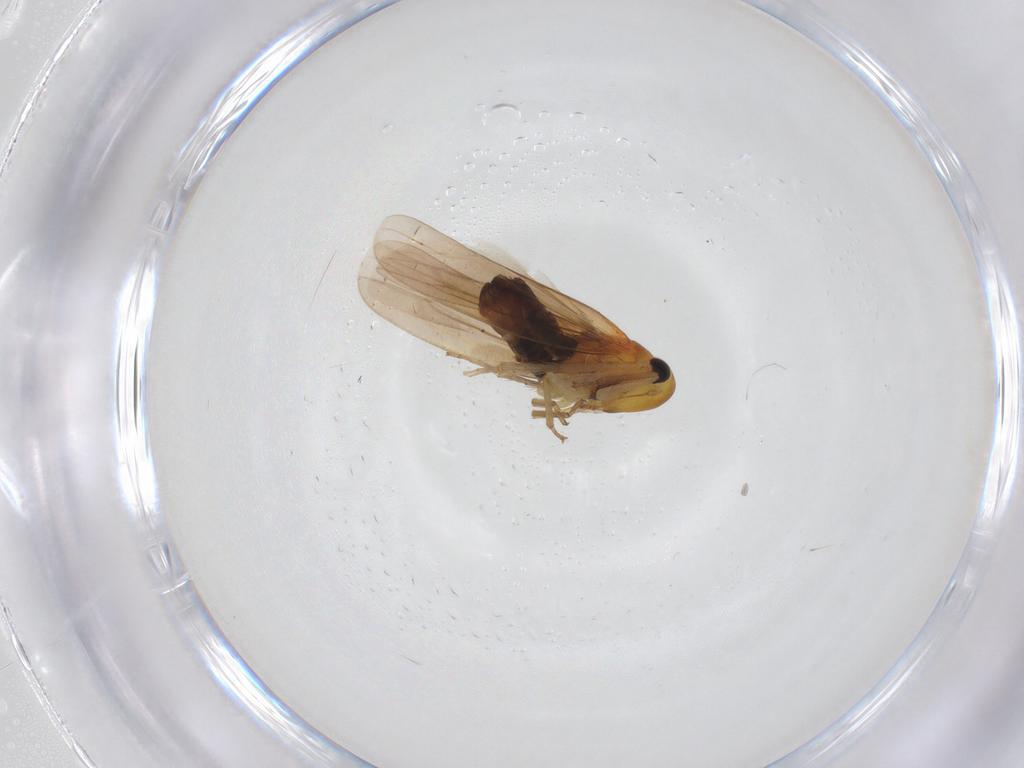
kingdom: Animalia
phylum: Arthropoda
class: Insecta
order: Hemiptera
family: Cicadellidae
